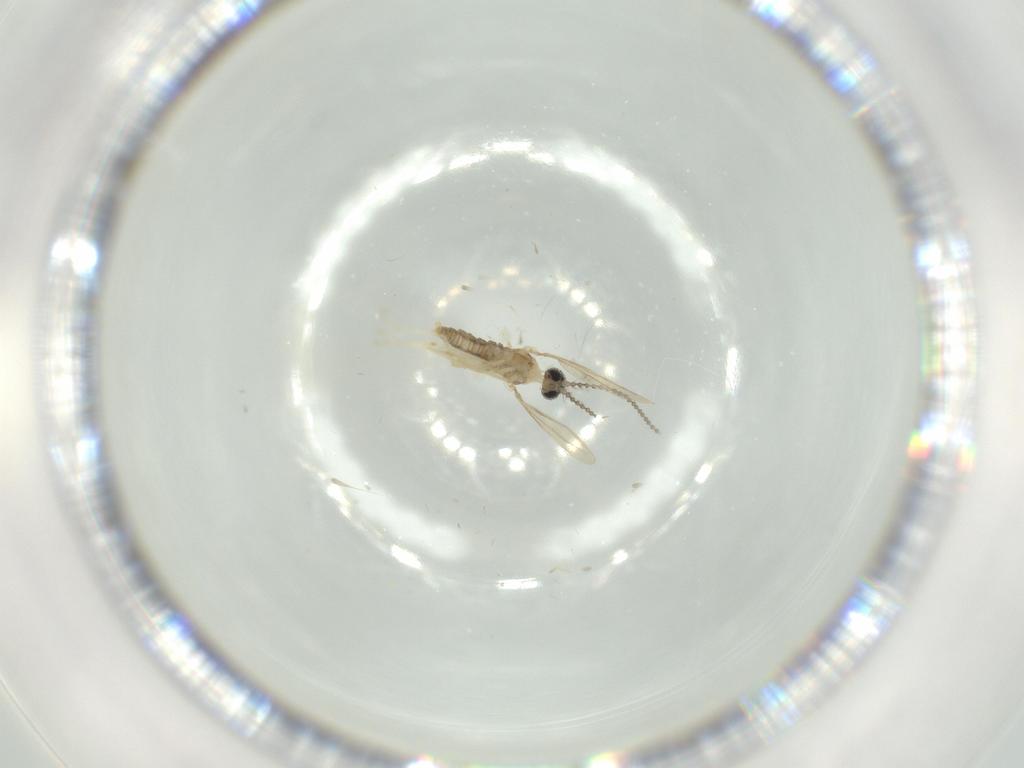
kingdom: Animalia
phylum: Arthropoda
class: Insecta
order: Diptera
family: Cecidomyiidae
